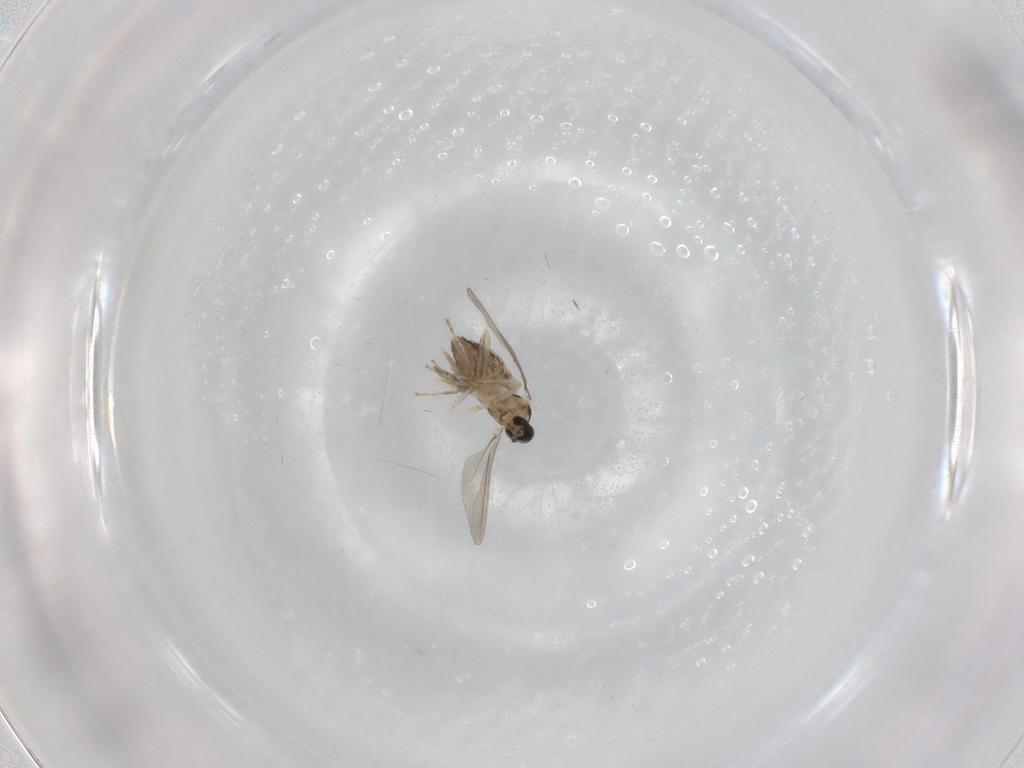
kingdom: Animalia
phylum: Arthropoda
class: Insecta
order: Diptera
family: Cecidomyiidae
